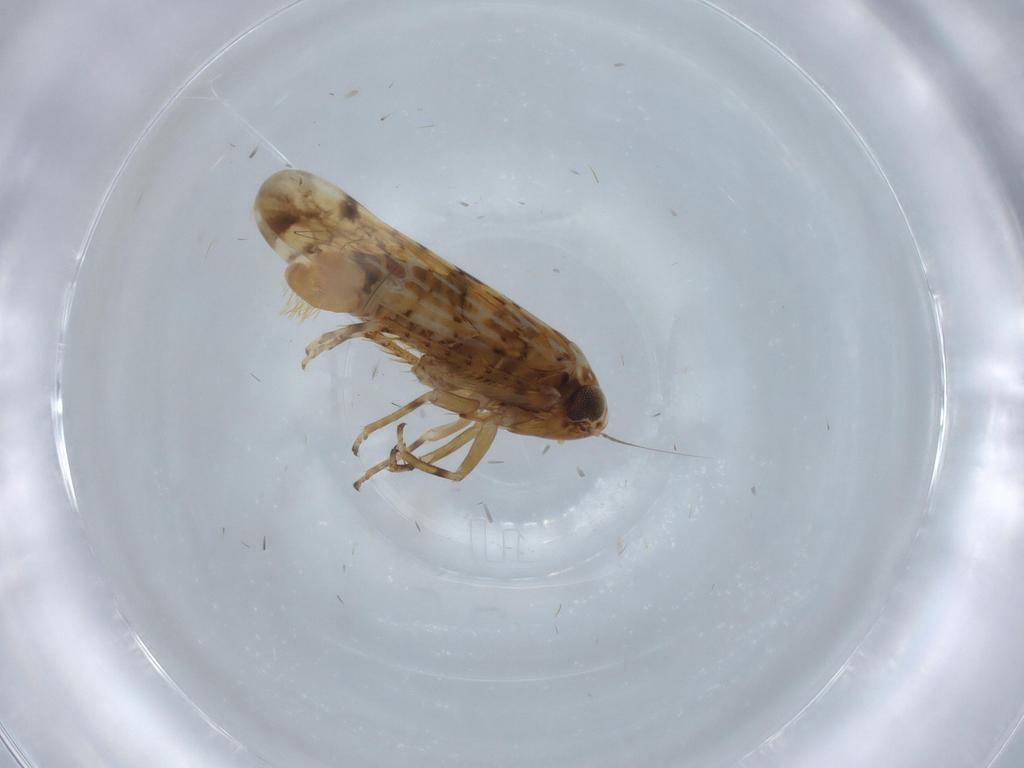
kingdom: Animalia
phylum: Arthropoda
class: Insecta
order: Hemiptera
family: Cicadellidae
